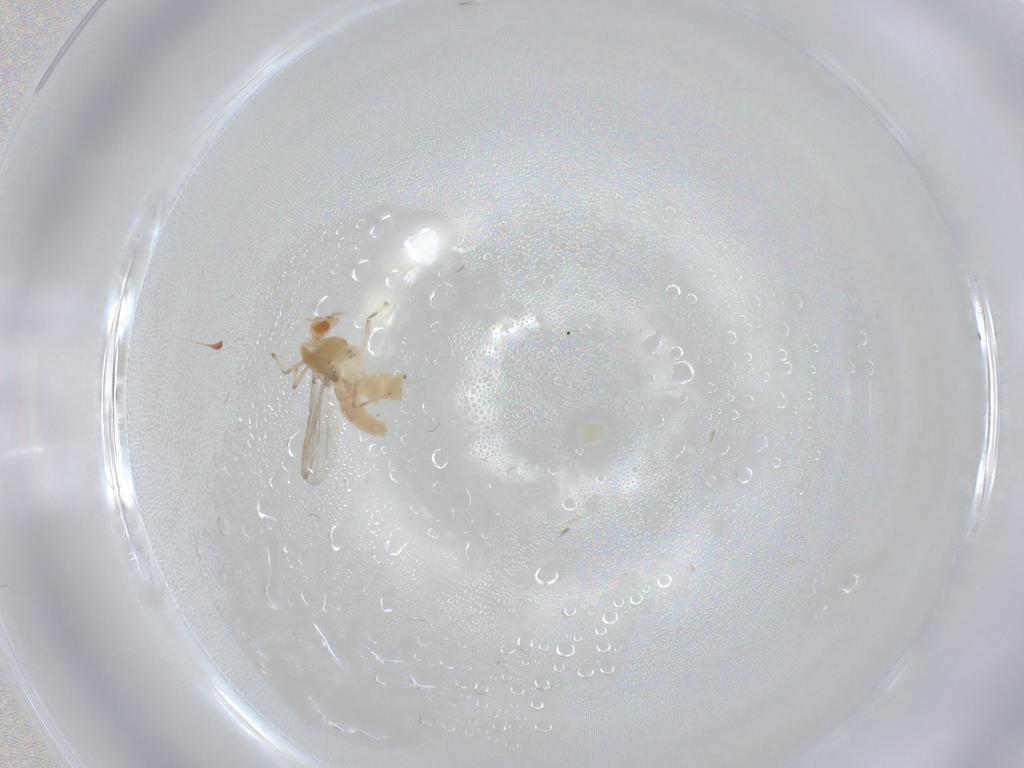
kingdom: Animalia
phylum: Arthropoda
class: Insecta
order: Diptera
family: Chironomidae
